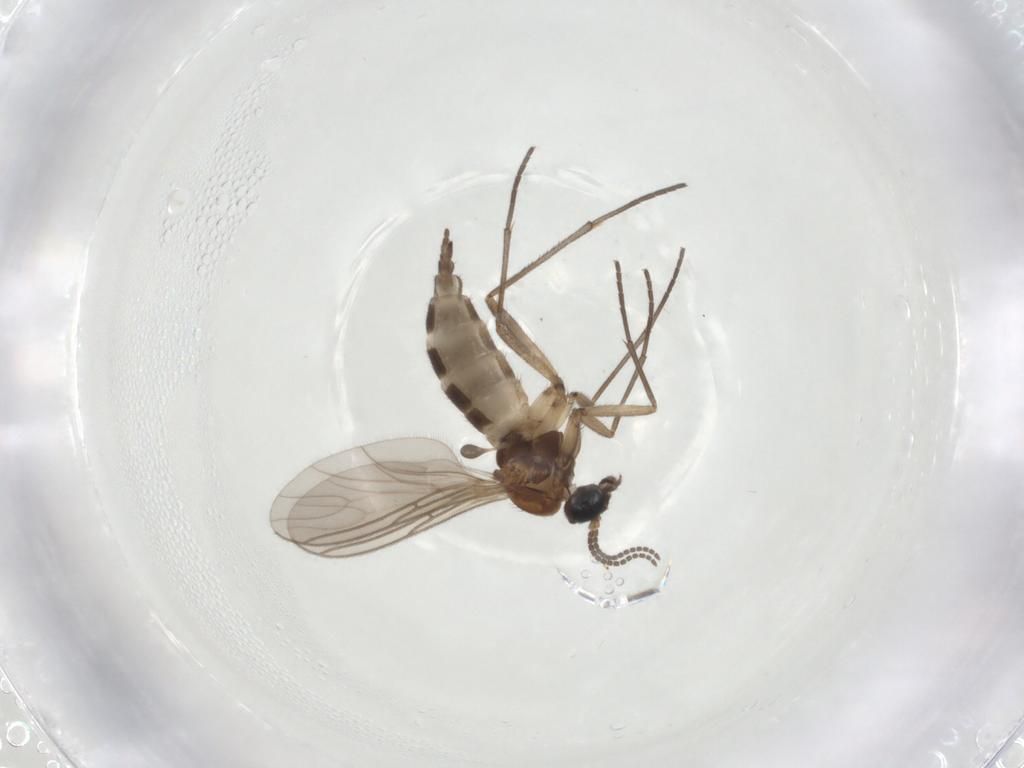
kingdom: Animalia
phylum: Arthropoda
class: Insecta
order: Diptera
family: Sciaridae
